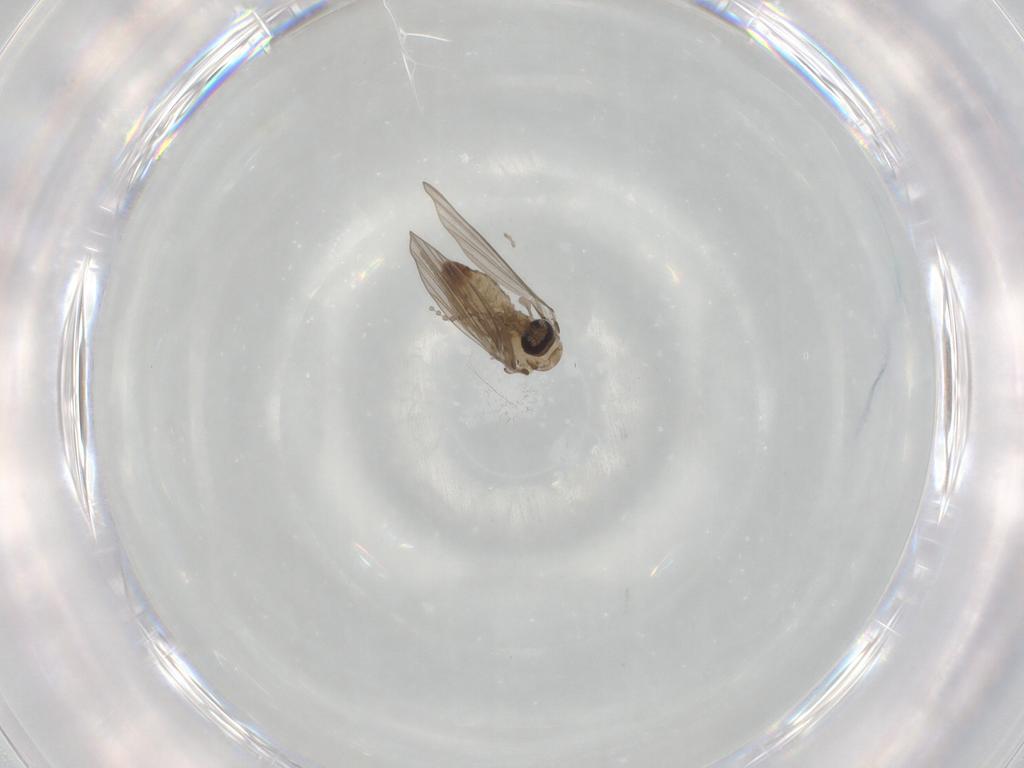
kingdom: Animalia
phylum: Arthropoda
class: Insecta
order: Diptera
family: Psychodidae
